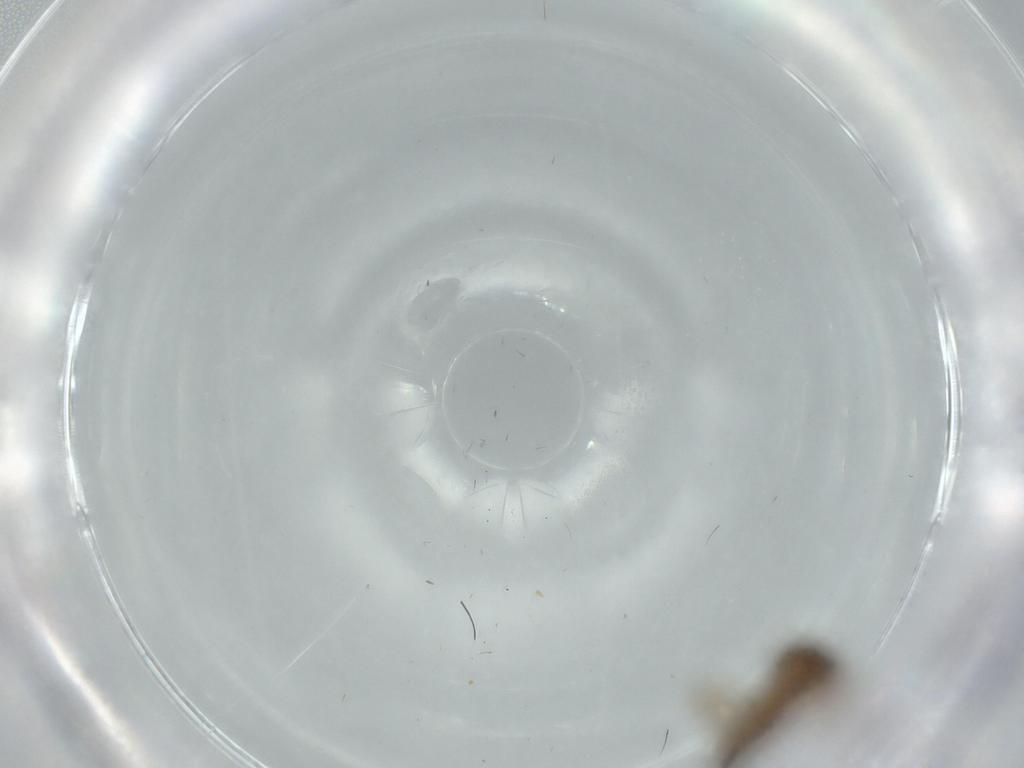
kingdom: Animalia
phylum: Arthropoda
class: Insecta
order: Diptera
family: Ceratopogonidae
